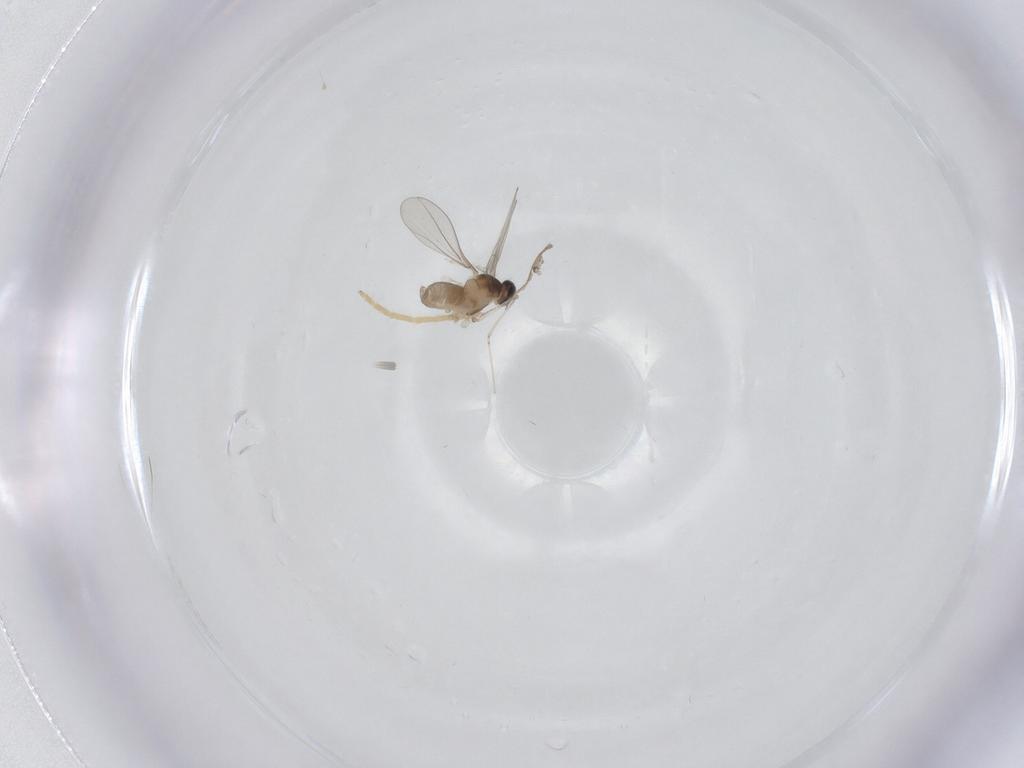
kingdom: Animalia
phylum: Arthropoda
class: Insecta
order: Diptera
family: Cecidomyiidae
